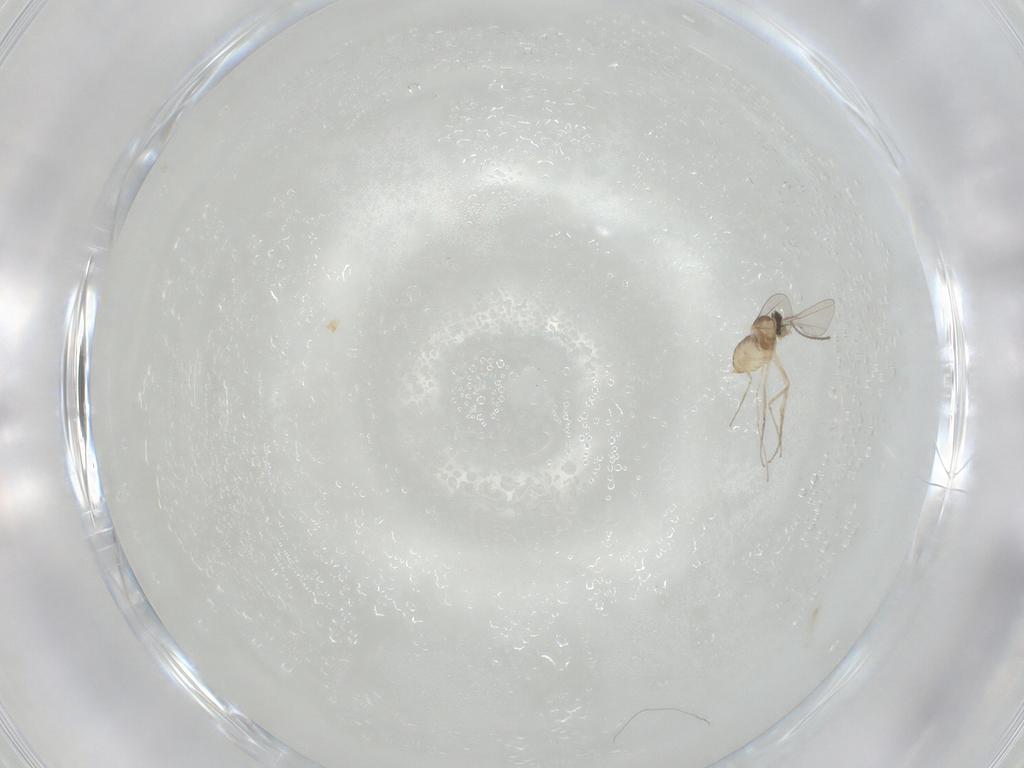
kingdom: Animalia
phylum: Arthropoda
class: Insecta
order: Diptera
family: Cecidomyiidae
